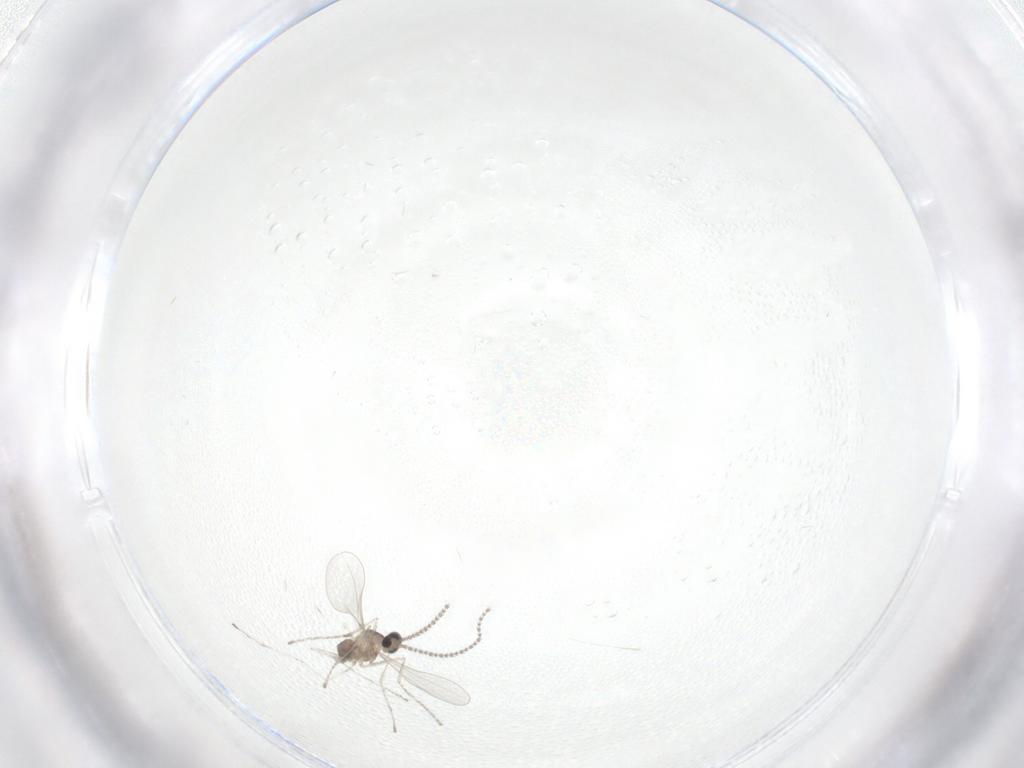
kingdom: Animalia
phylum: Arthropoda
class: Insecta
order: Diptera
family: Cecidomyiidae
